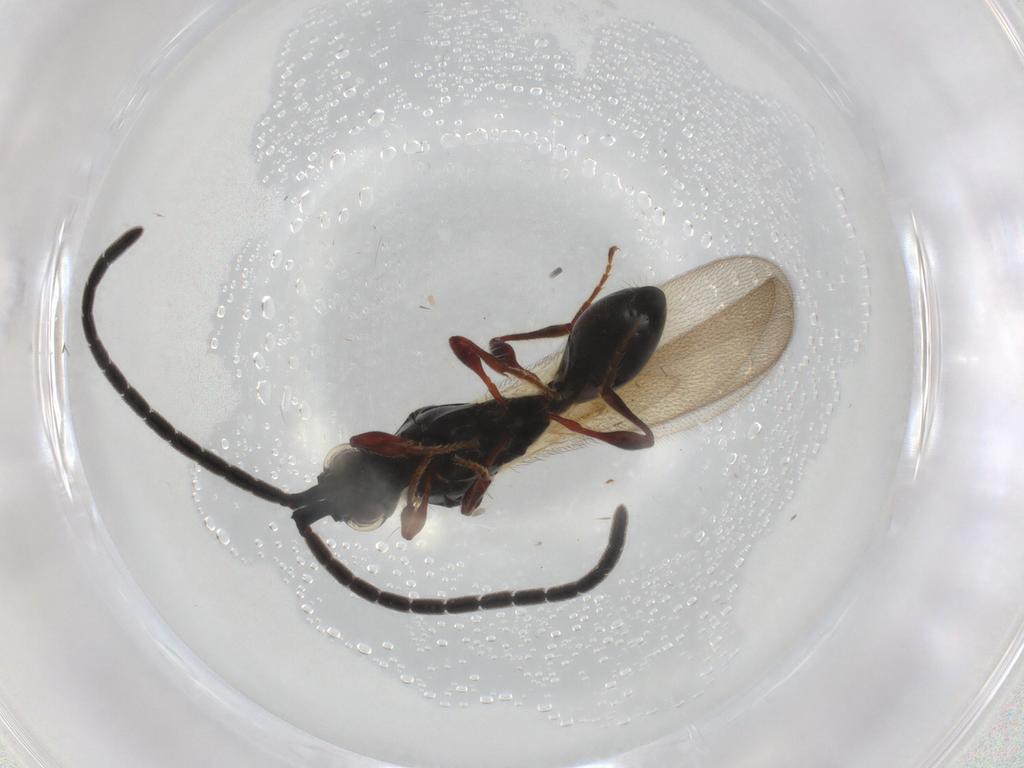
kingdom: Animalia
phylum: Arthropoda
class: Insecta
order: Hymenoptera
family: Diapriidae
